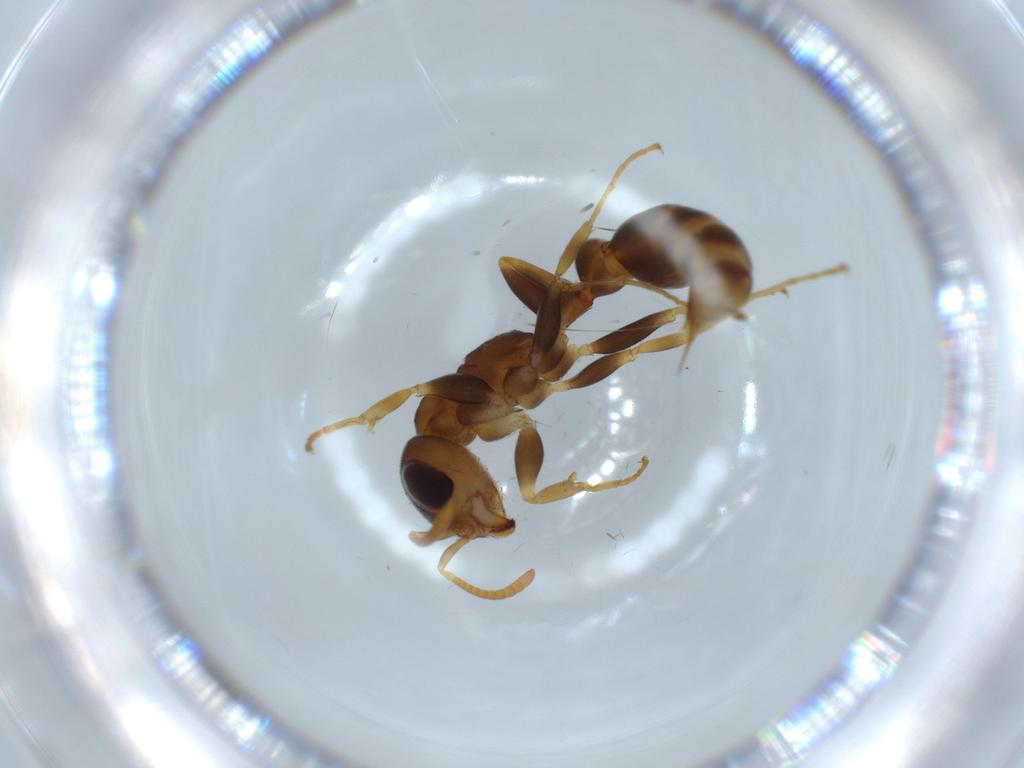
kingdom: Animalia
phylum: Arthropoda
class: Insecta
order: Hymenoptera
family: Formicidae
